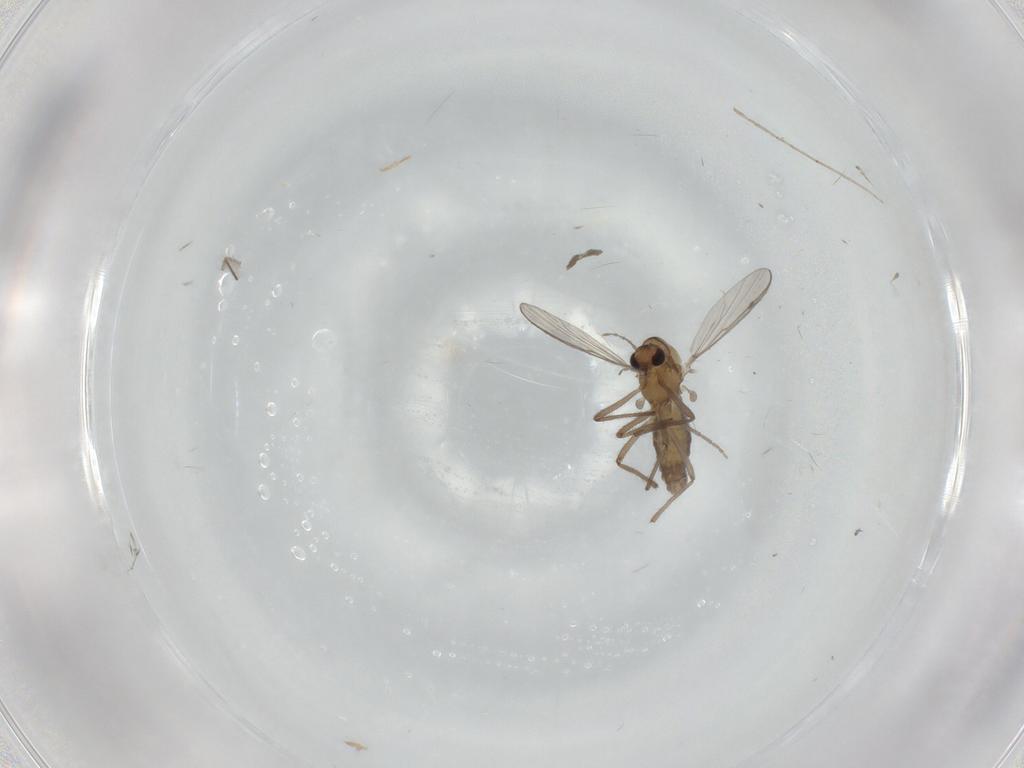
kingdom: Animalia
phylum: Arthropoda
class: Insecta
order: Diptera
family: Chironomidae
